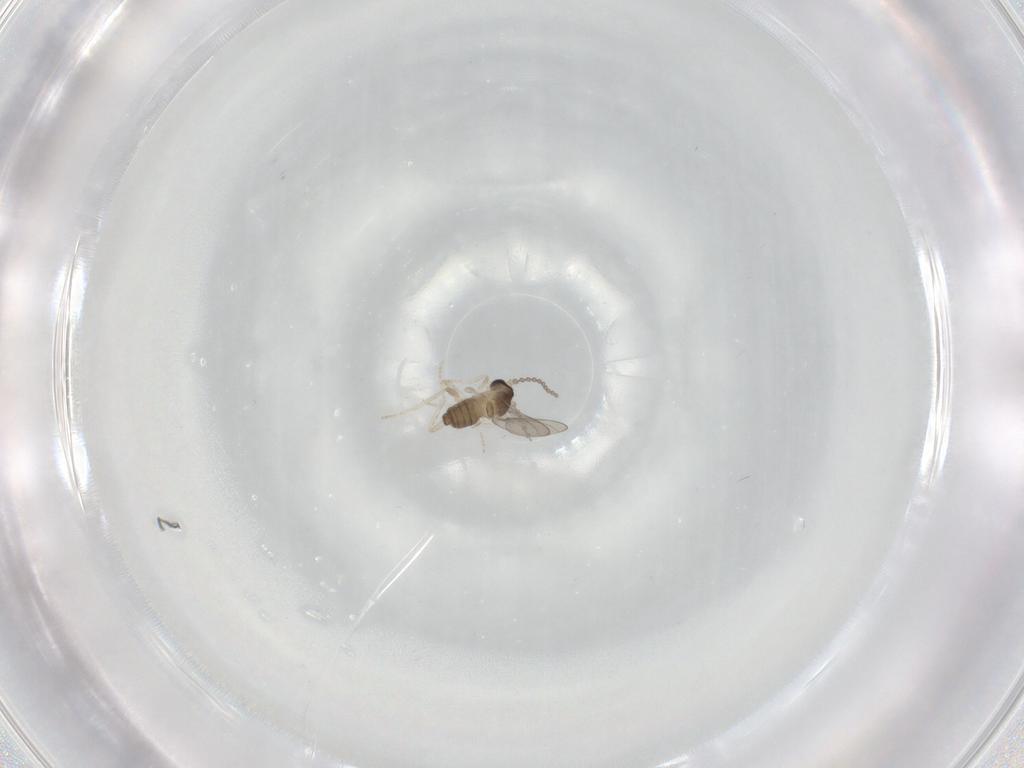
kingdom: Animalia
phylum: Arthropoda
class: Insecta
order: Diptera
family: Cecidomyiidae
